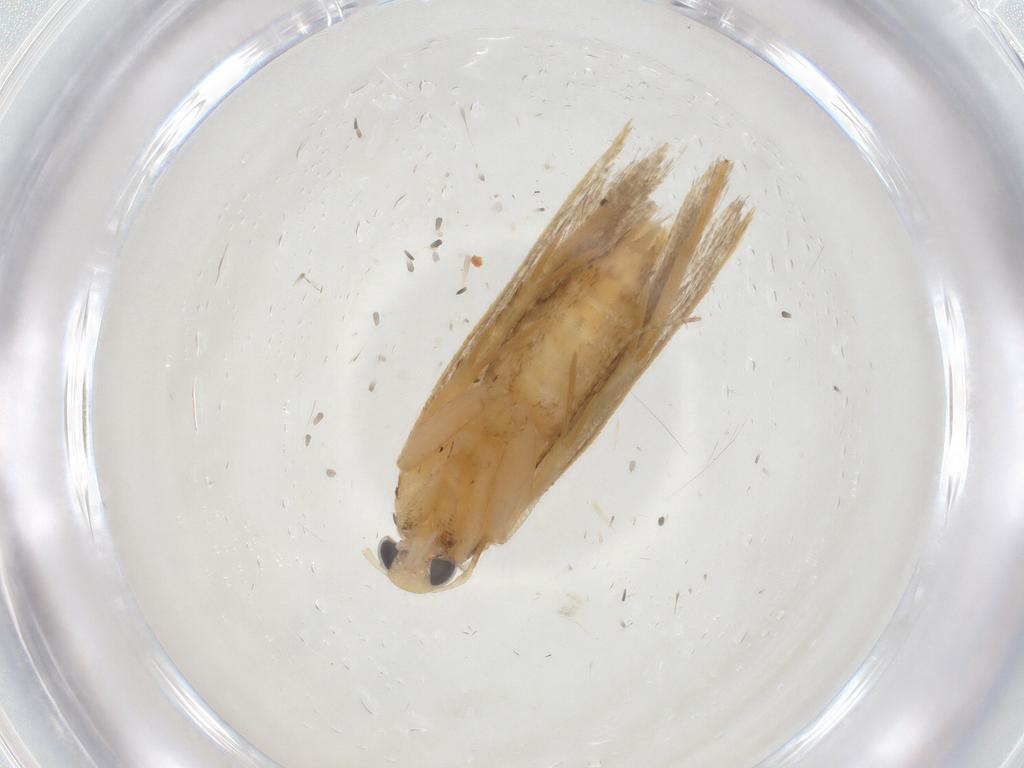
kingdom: Animalia
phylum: Arthropoda
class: Insecta
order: Lepidoptera
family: Gelechiidae
